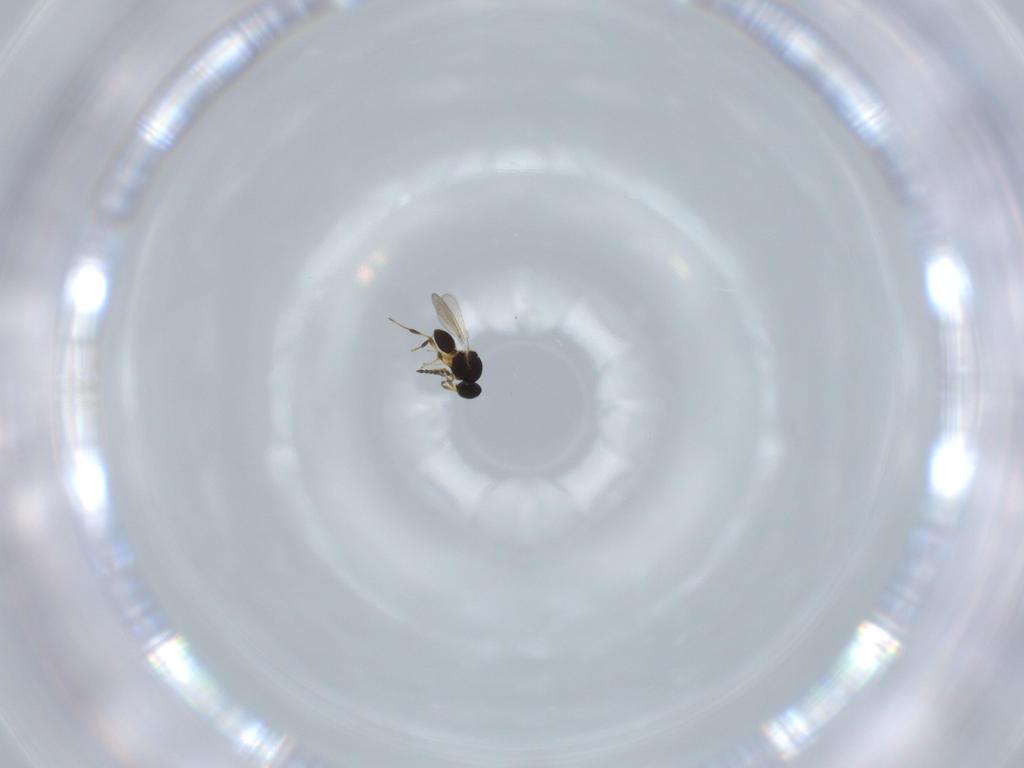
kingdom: Animalia
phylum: Arthropoda
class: Insecta
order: Hymenoptera
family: Platygastridae
